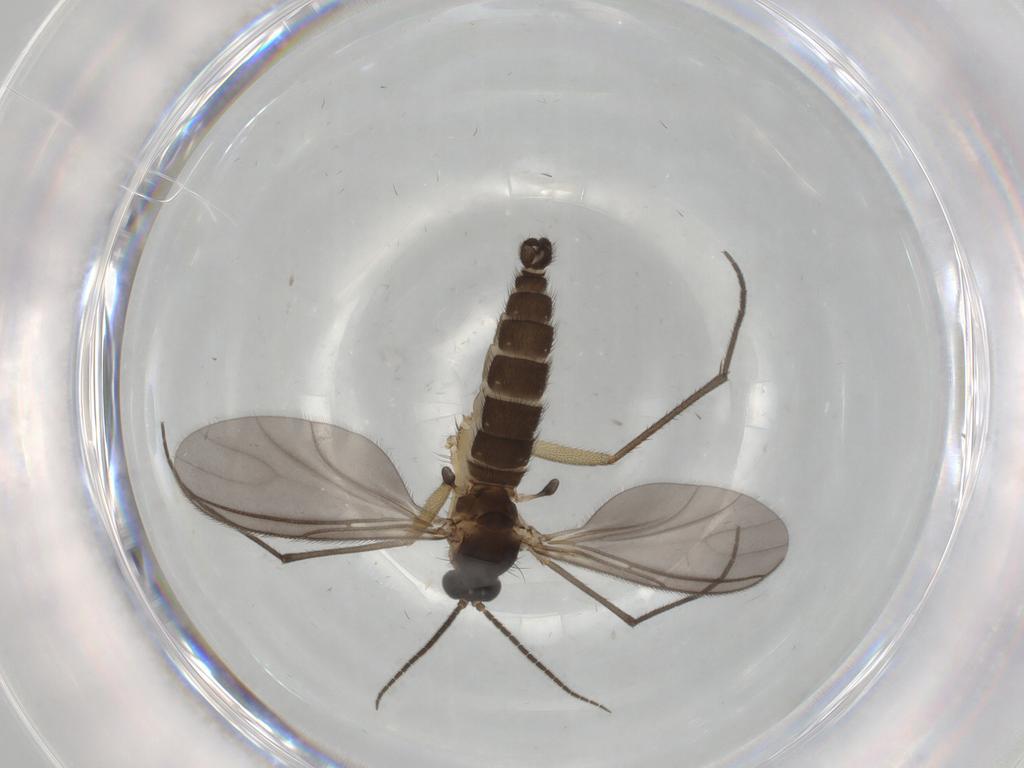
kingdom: Animalia
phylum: Arthropoda
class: Insecta
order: Diptera
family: Sciaridae
